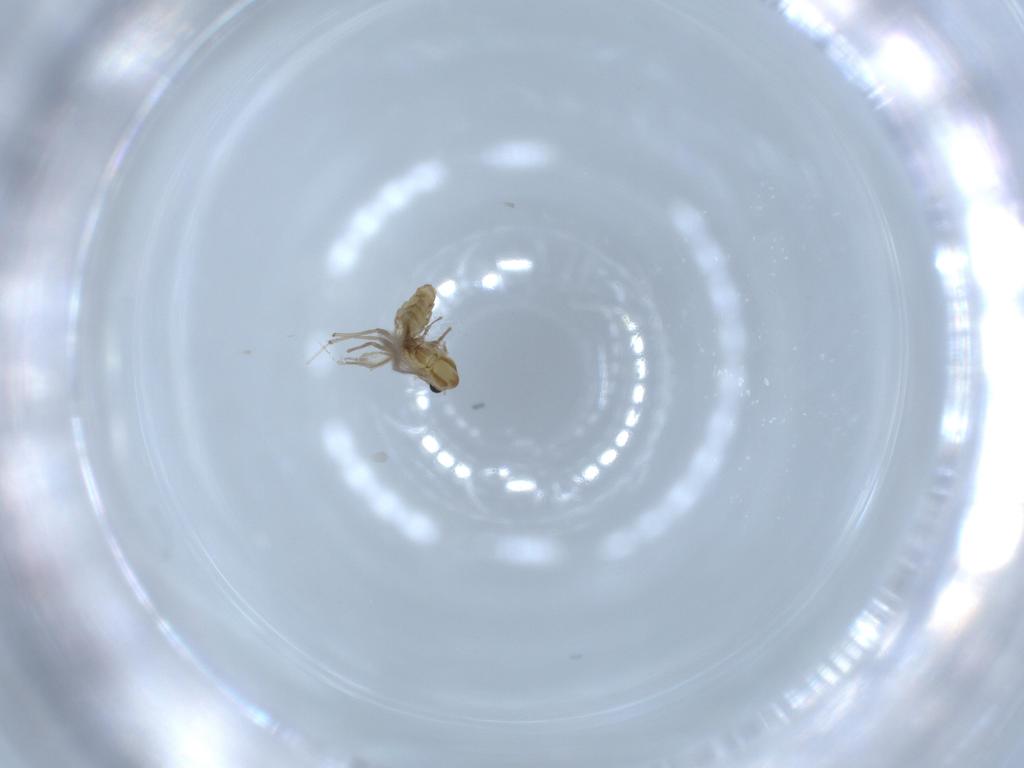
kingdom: Animalia
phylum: Arthropoda
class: Insecta
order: Diptera
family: Chironomidae
